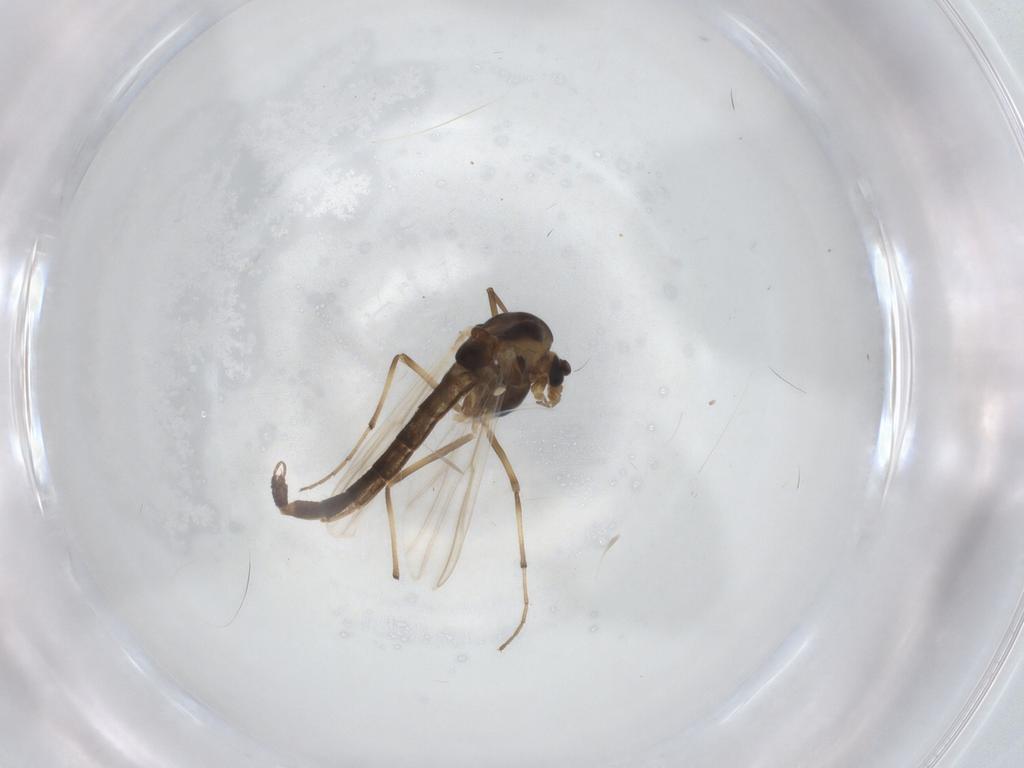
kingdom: Animalia
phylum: Arthropoda
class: Insecta
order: Diptera
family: Chironomidae
